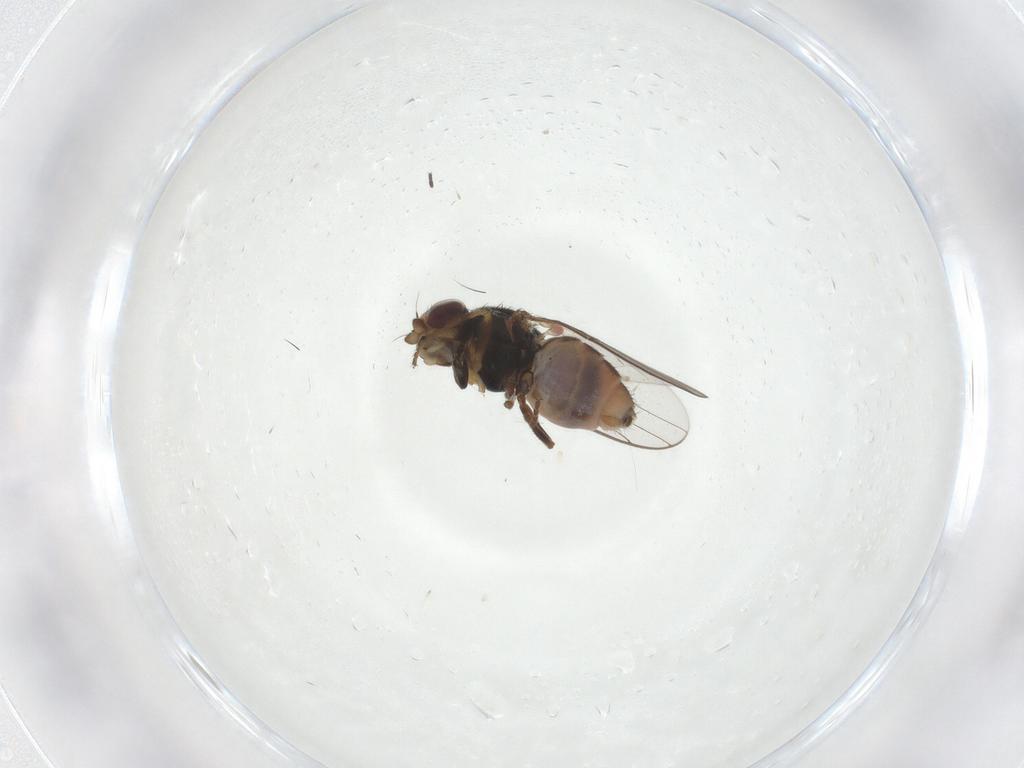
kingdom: Animalia
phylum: Arthropoda
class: Insecta
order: Diptera
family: Chloropidae
